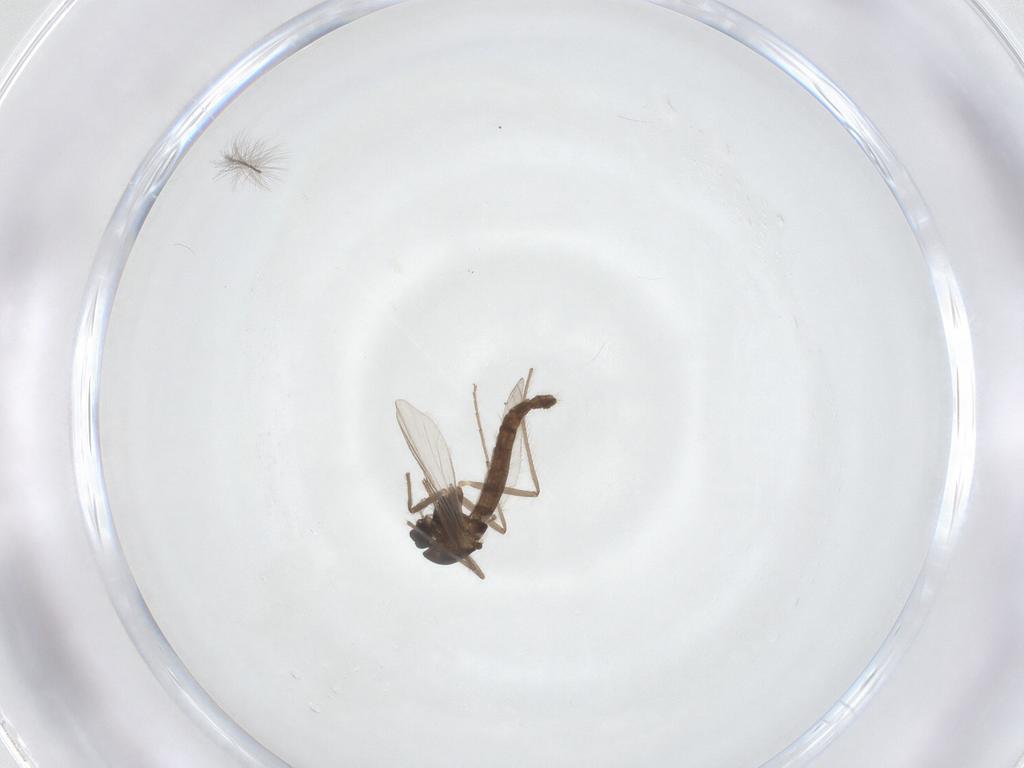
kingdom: Animalia
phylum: Arthropoda
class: Insecta
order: Diptera
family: Chironomidae
